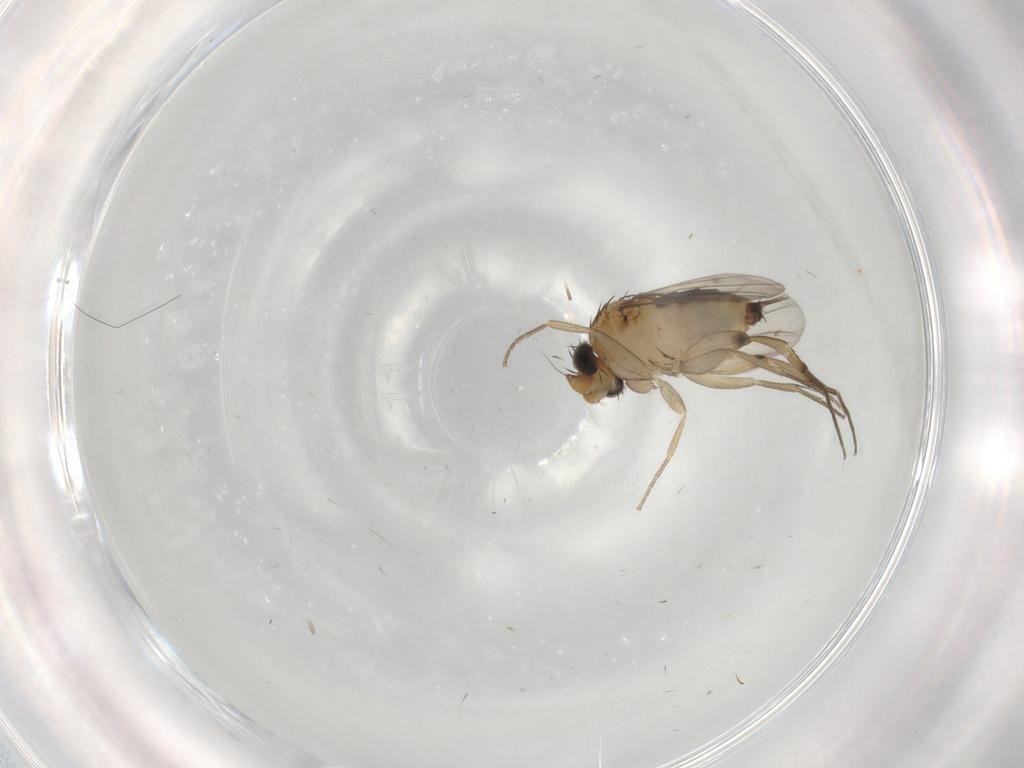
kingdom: Animalia
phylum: Arthropoda
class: Insecta
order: Diptera
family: Phoridae
